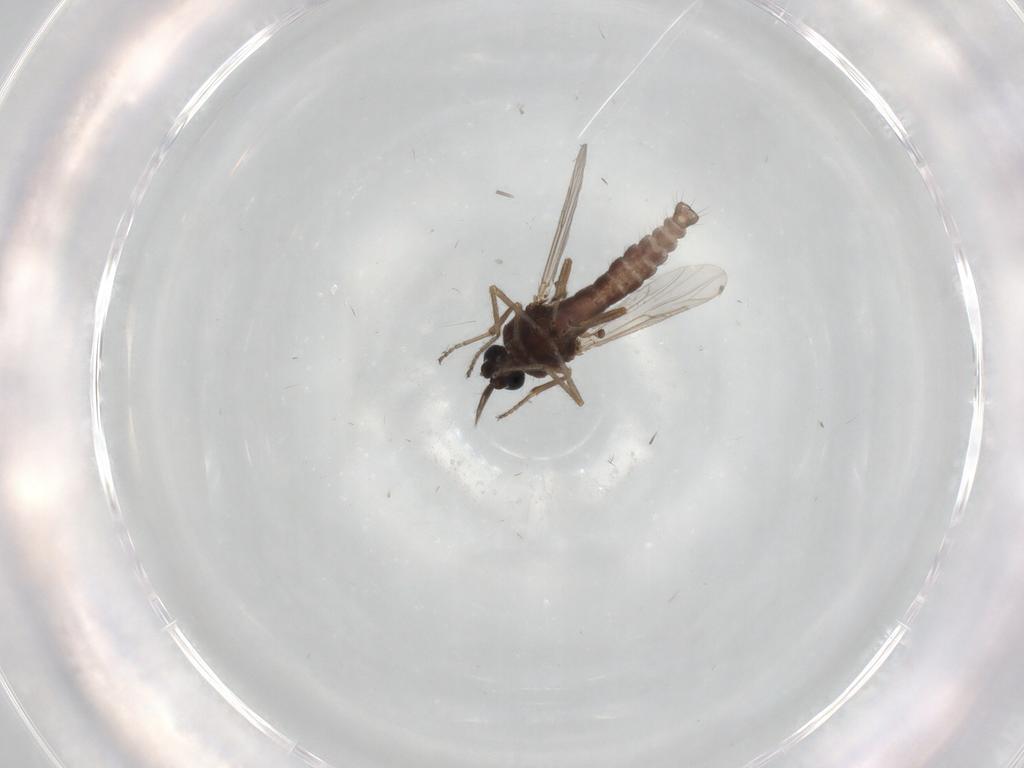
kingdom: Animalia
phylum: Arthropoda
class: Insecta
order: Diptera
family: Ceratopogonidae
